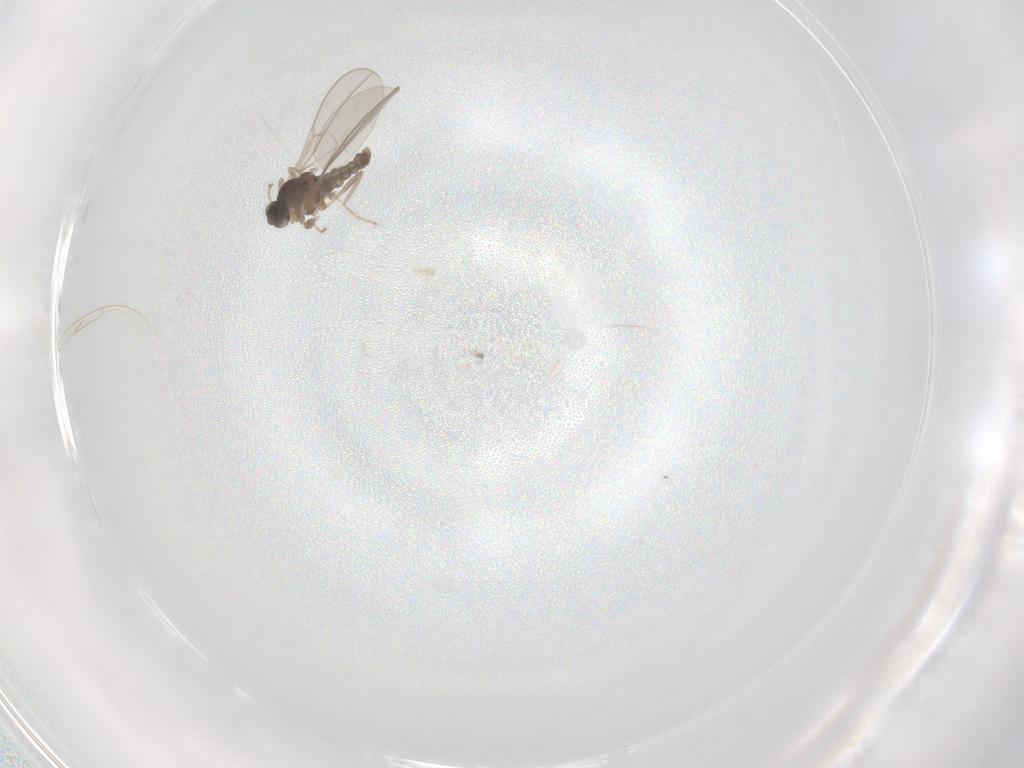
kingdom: Animalia
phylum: Arthropoda
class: Insecta
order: Diptera
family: Cecidomyiidae
